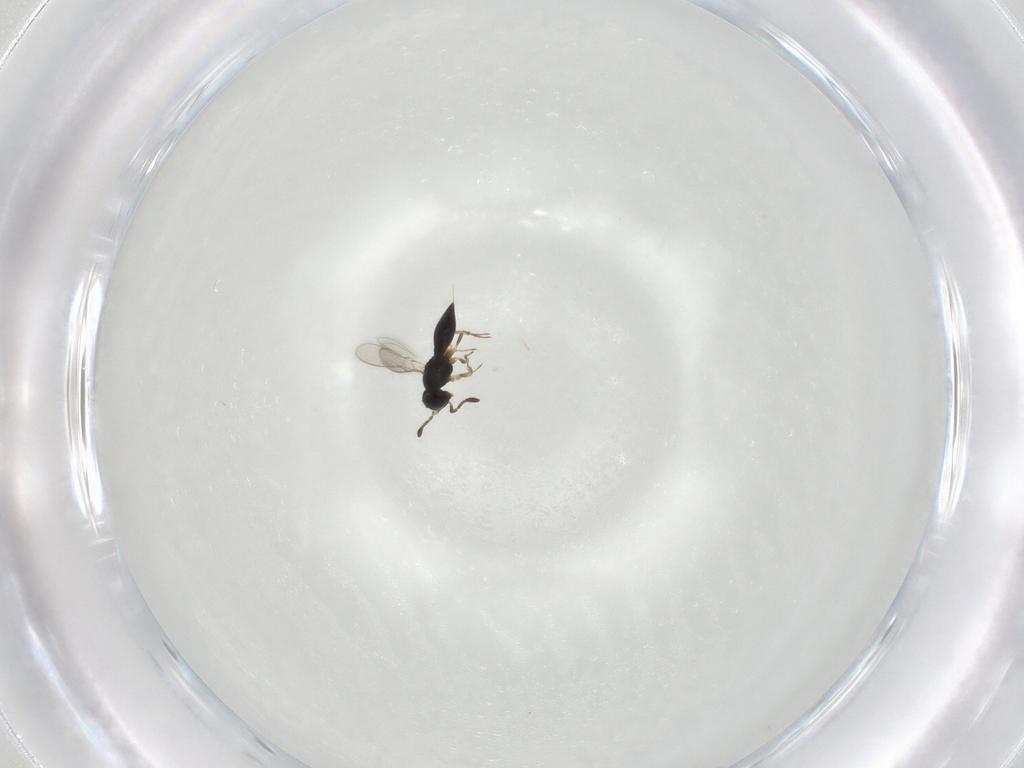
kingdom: Animalia
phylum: Arthropoda
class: Insecta
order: Hymenoptera
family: Scelionidae
